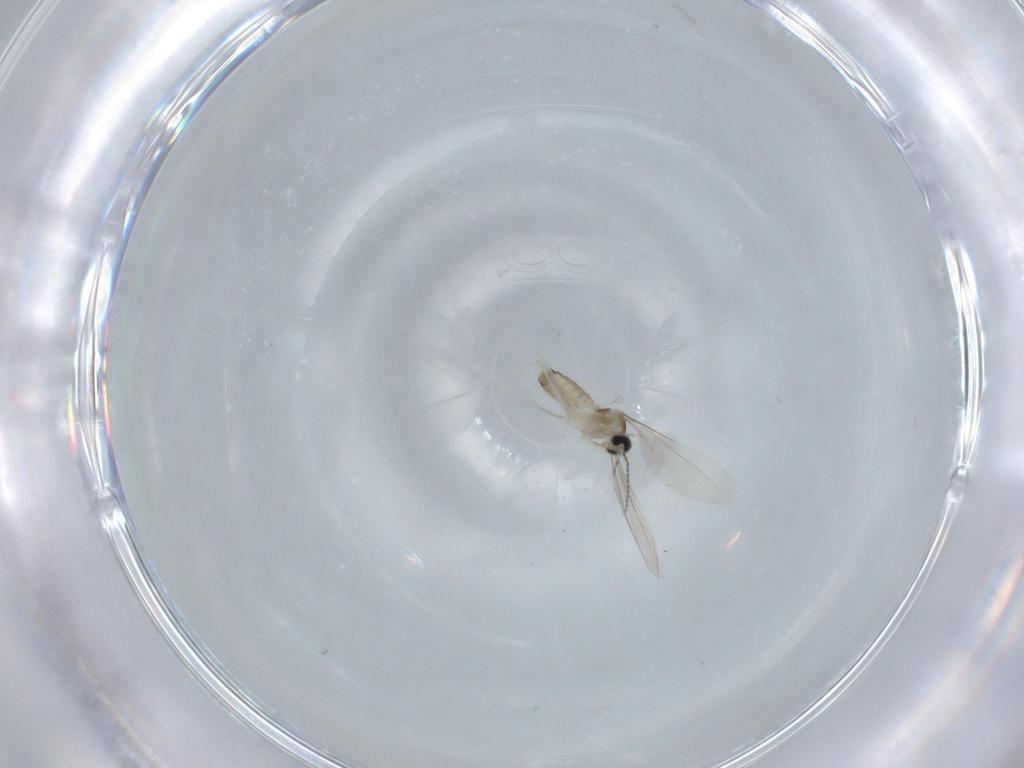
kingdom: Animalia
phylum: Arthropoda
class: Insecta
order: Diptera
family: Cecidomyiidae
